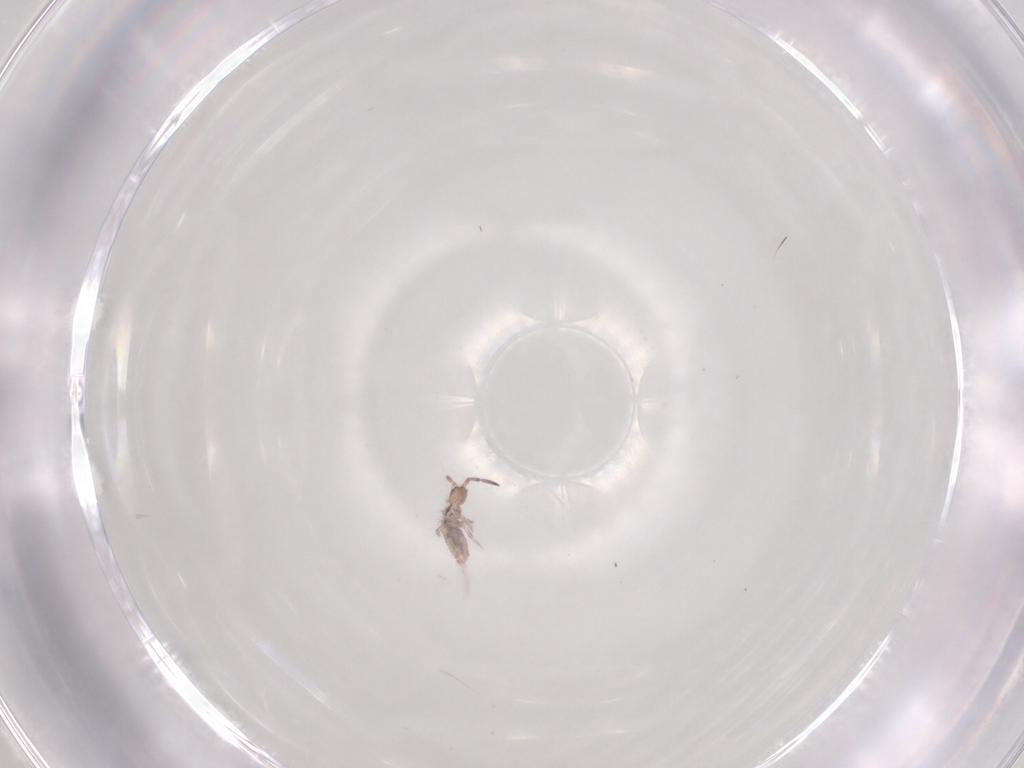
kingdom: Animalia
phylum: Arthropoda
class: Collembola
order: Entomobryomorpha
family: Entomobryidae
